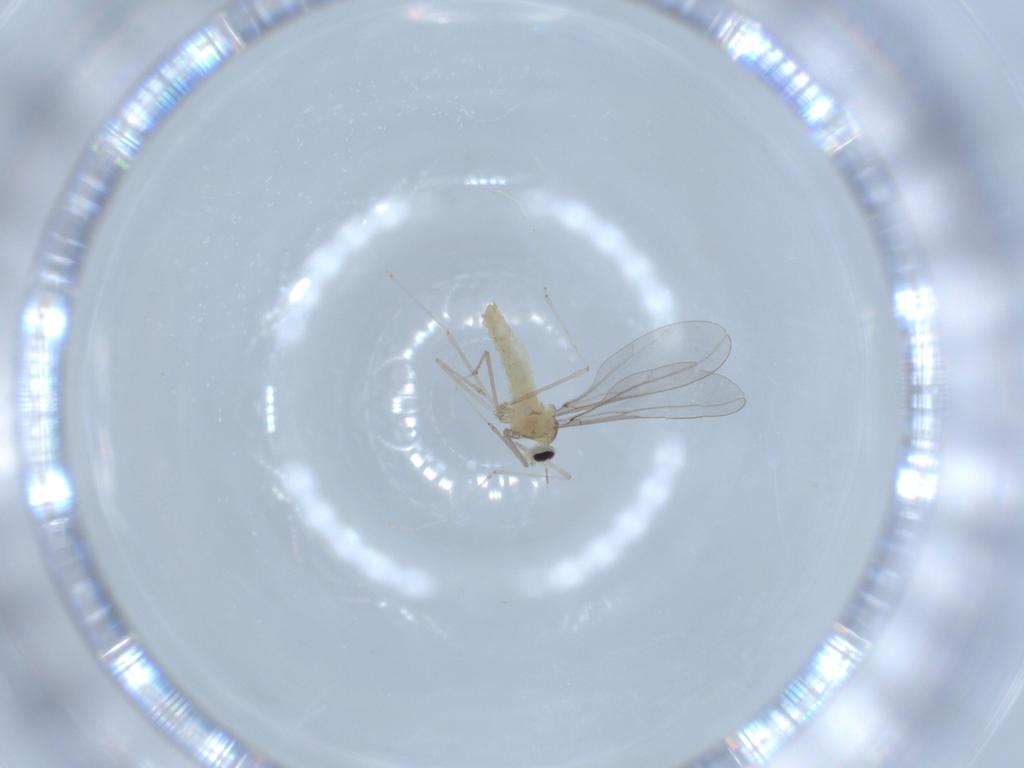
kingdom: Animalia
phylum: Arthropoda
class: Insecta
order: Diptera
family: Cecidomyiidae
